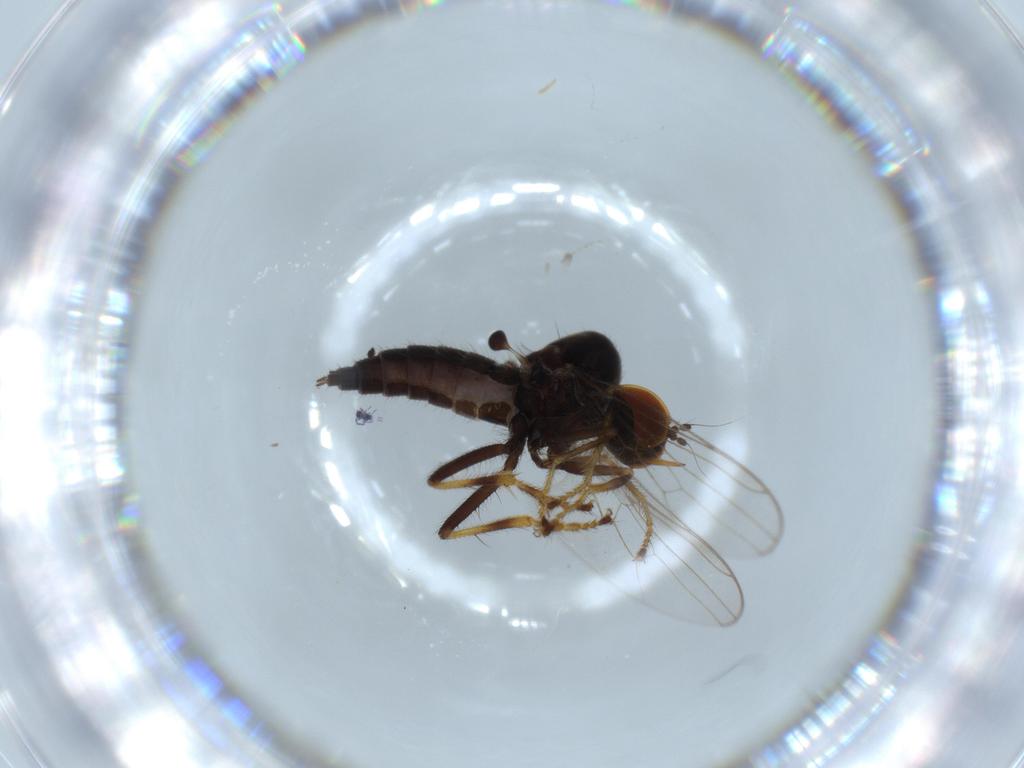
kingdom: Animalia
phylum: Arthropoda
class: Insecta
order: Diptera
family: Hybotidae
